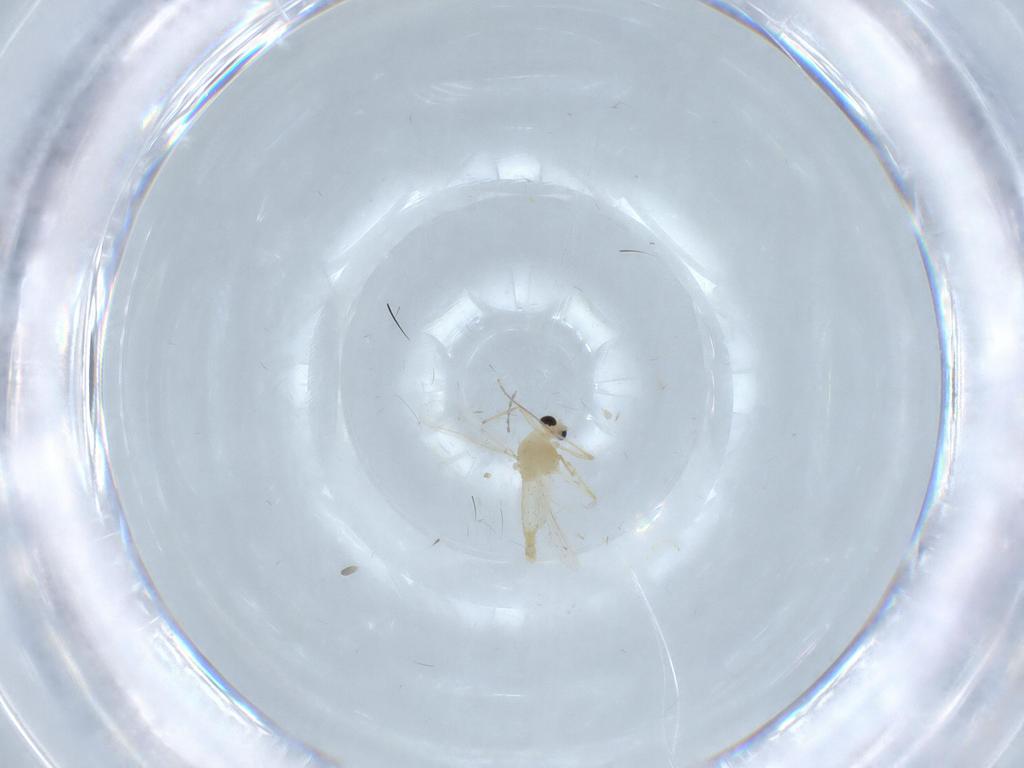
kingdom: Animalia
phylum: Arthropoda
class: Insecta
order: Diptera
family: Chironomidae
